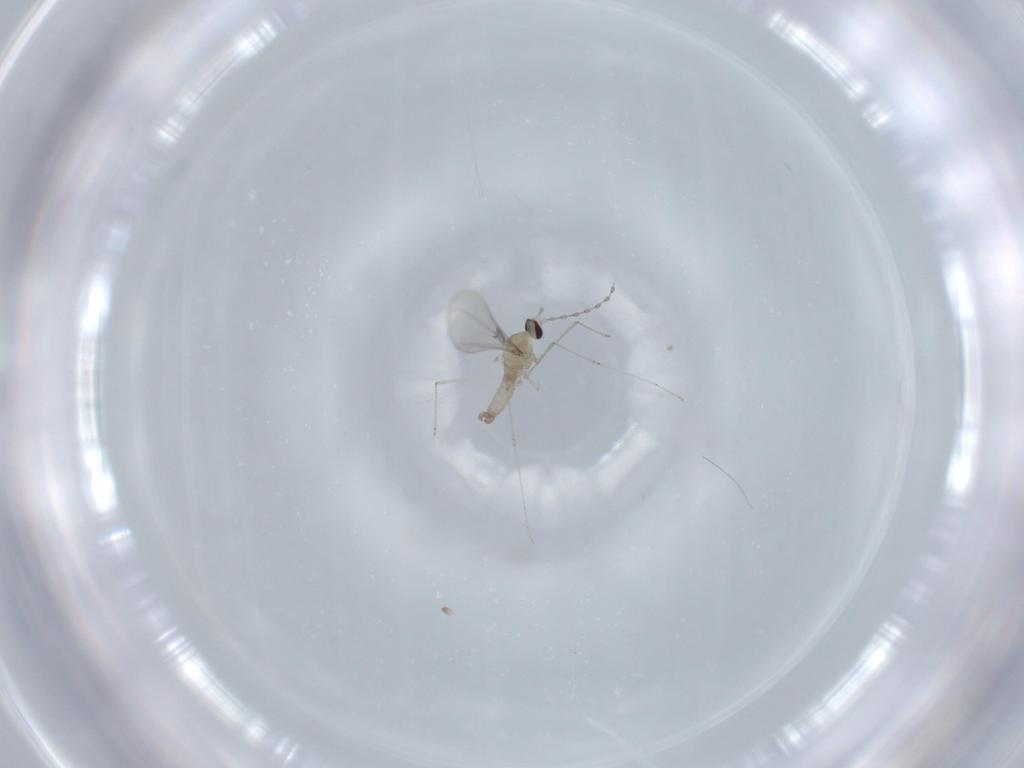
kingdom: Animalia
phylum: Arthropoda
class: Insecta
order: Diptera
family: Cecidomyiidae
